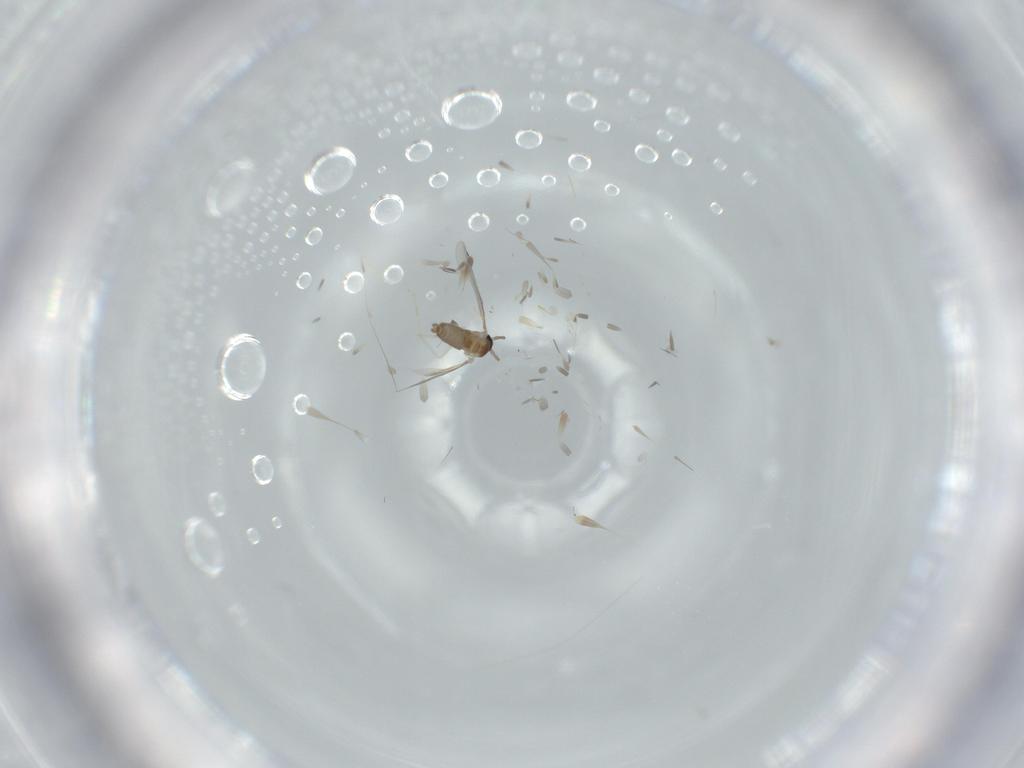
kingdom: Animalia
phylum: Arthropoda
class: Insecta
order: Diptera
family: Cecidomyiidae
